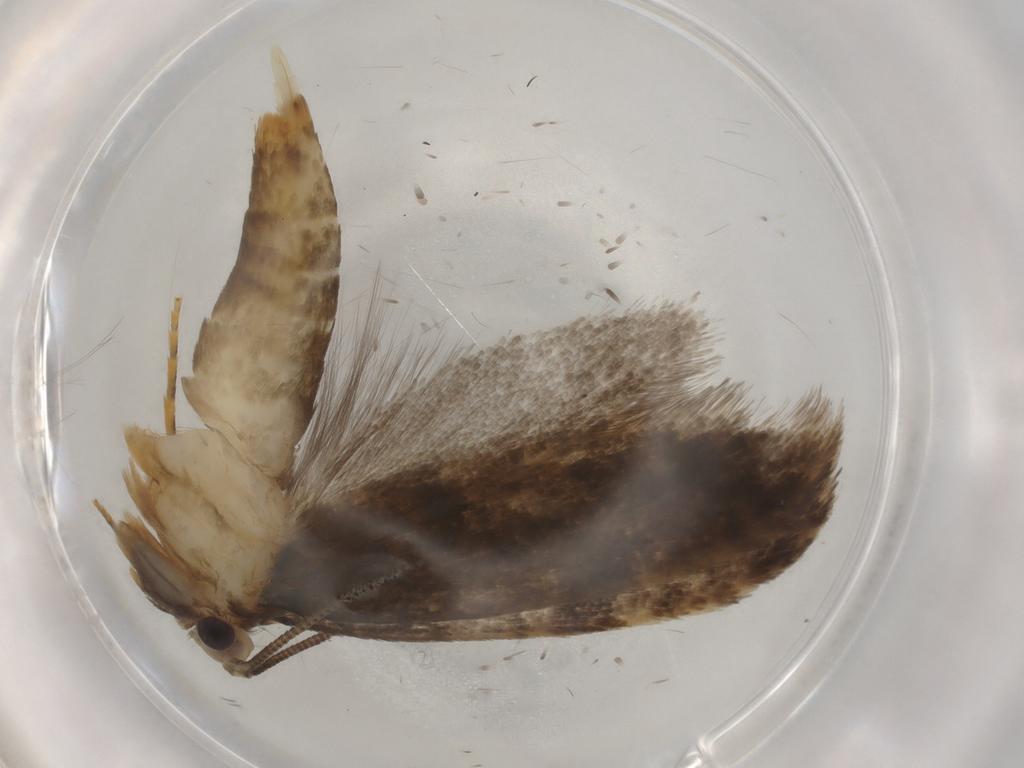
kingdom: Animalia
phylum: Arthropoda
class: Insecta
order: Lepidoptera
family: Tineidae
